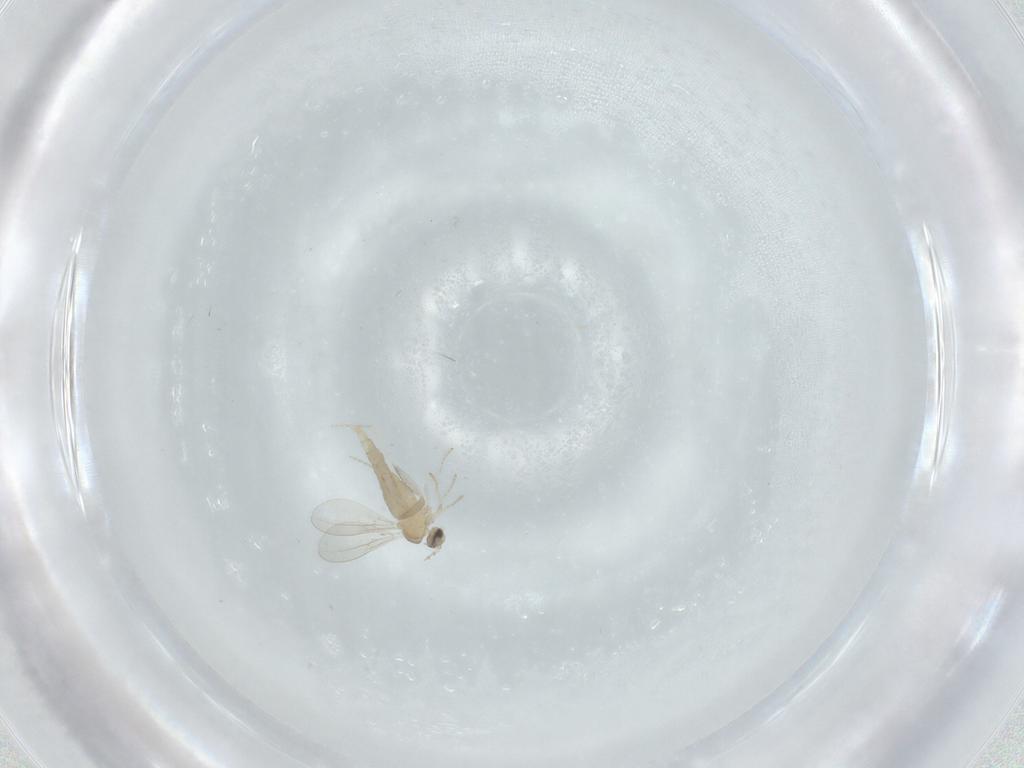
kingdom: Animalia
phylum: Arthropoda
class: Insecta
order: Diptera
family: Cecidomyiidae
